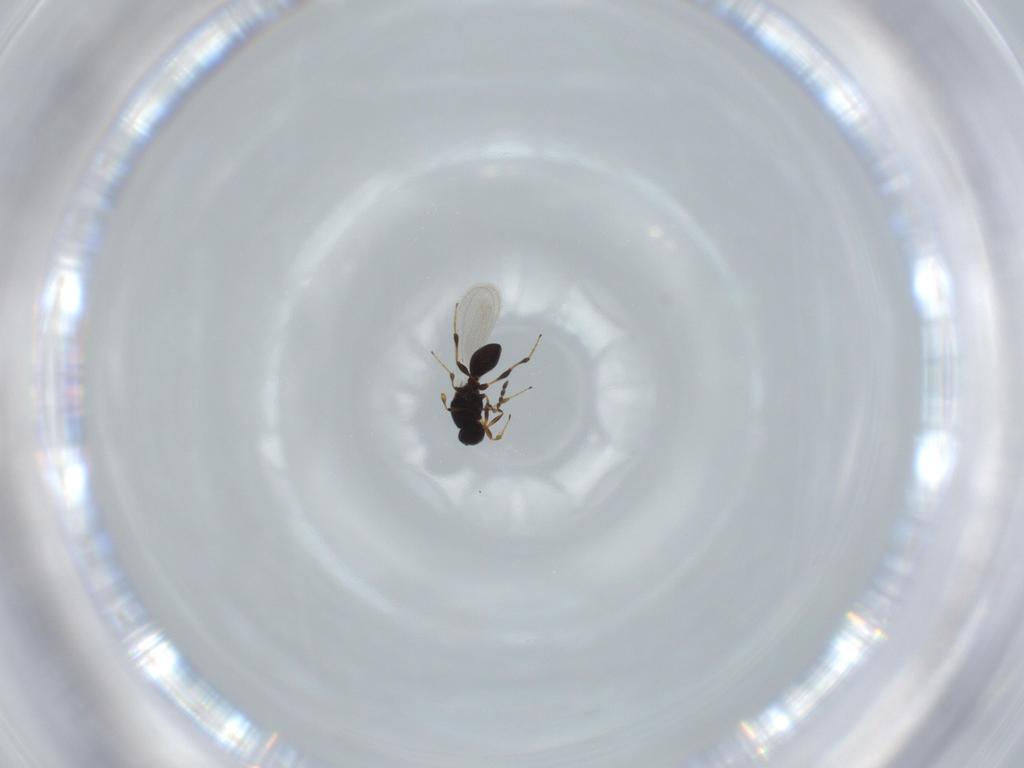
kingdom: Animalia
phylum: Arthropoda
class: Insecta
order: Hymenoptera
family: Platygastridae
